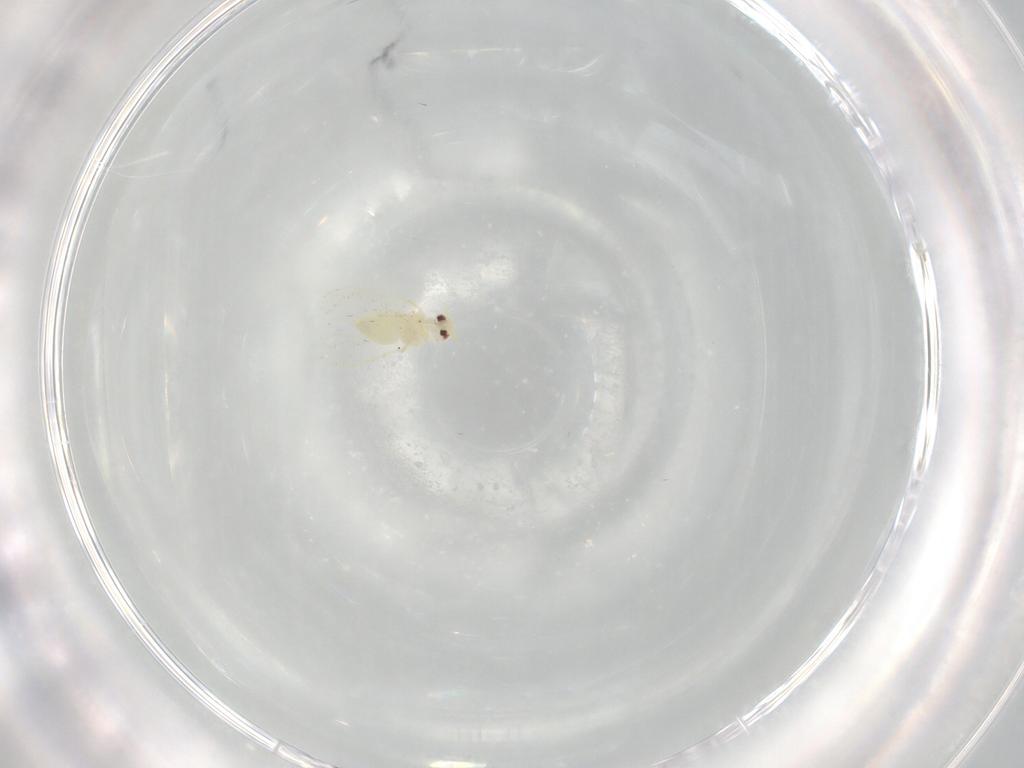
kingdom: Animalia
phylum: Arthropoda
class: Insecta
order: Hemiptera
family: Aleyrodidae
